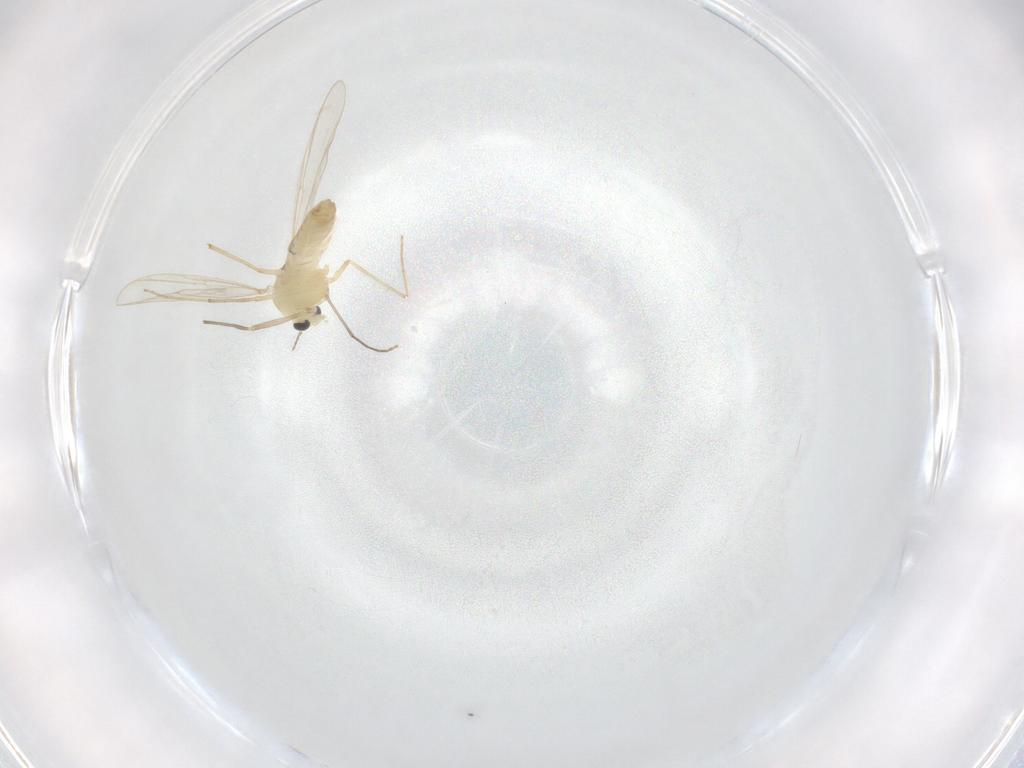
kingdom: Animalia
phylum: Arthropoda
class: Insecta
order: Diptera
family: Chironomidae
